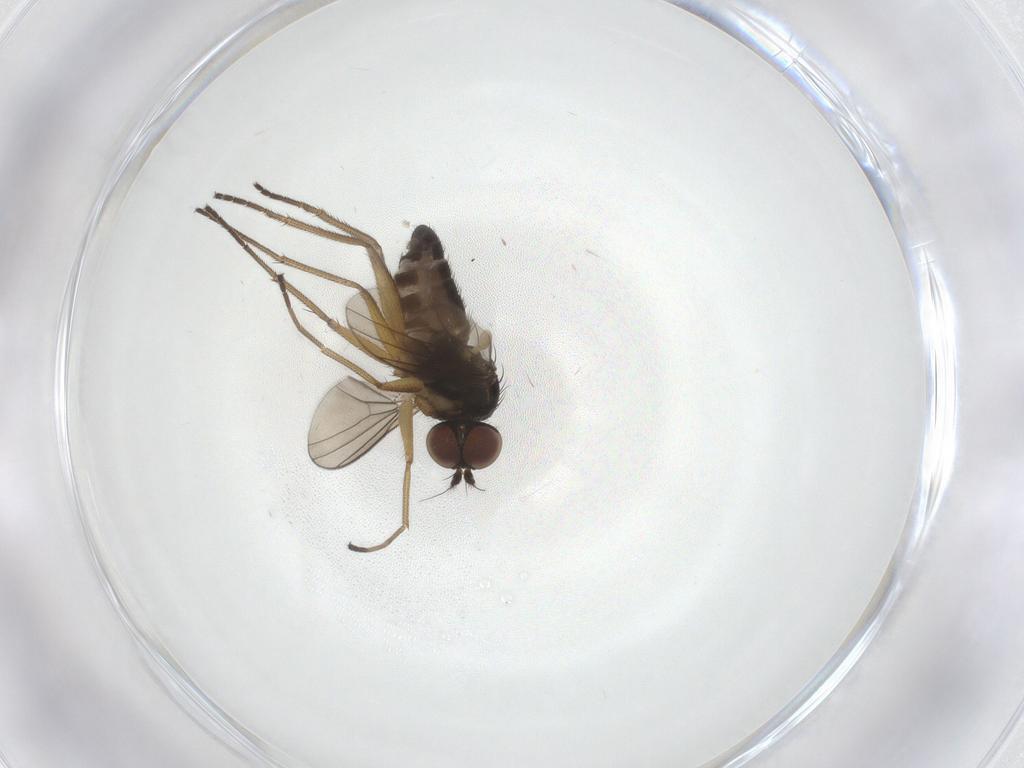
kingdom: Animalia
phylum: Arthropoda
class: Insecta
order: Diptera
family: Dolichopodidae
